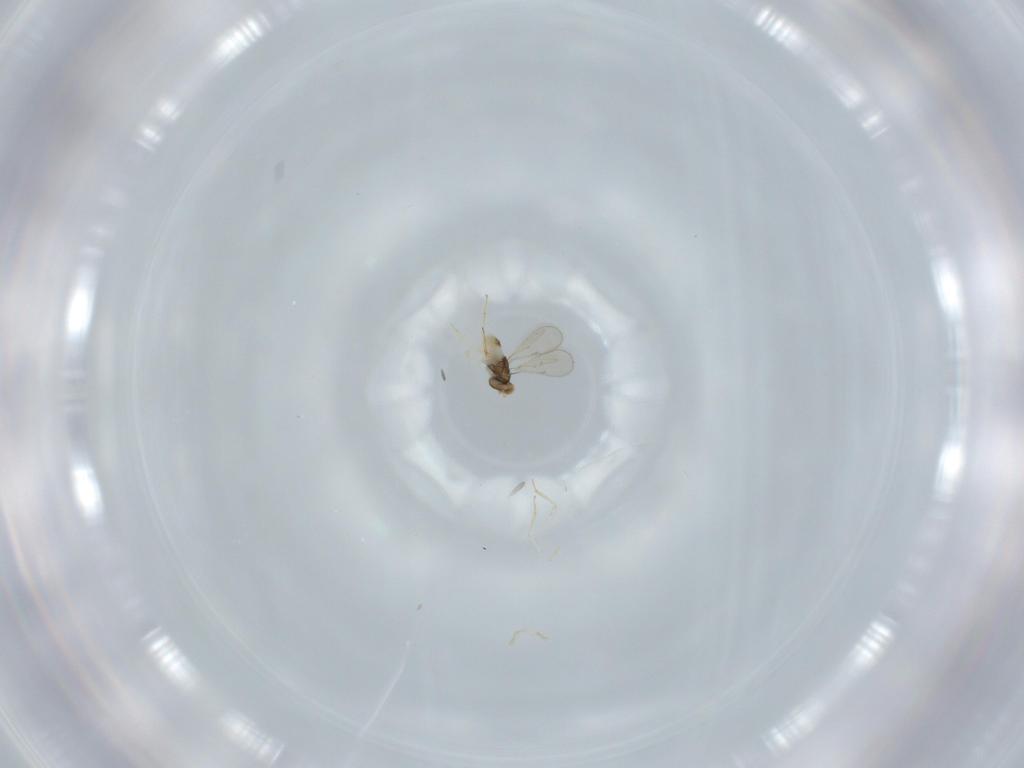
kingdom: Animalia
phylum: Arthropoda
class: Insecta
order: Hymenoptera
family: Aphelinidae
